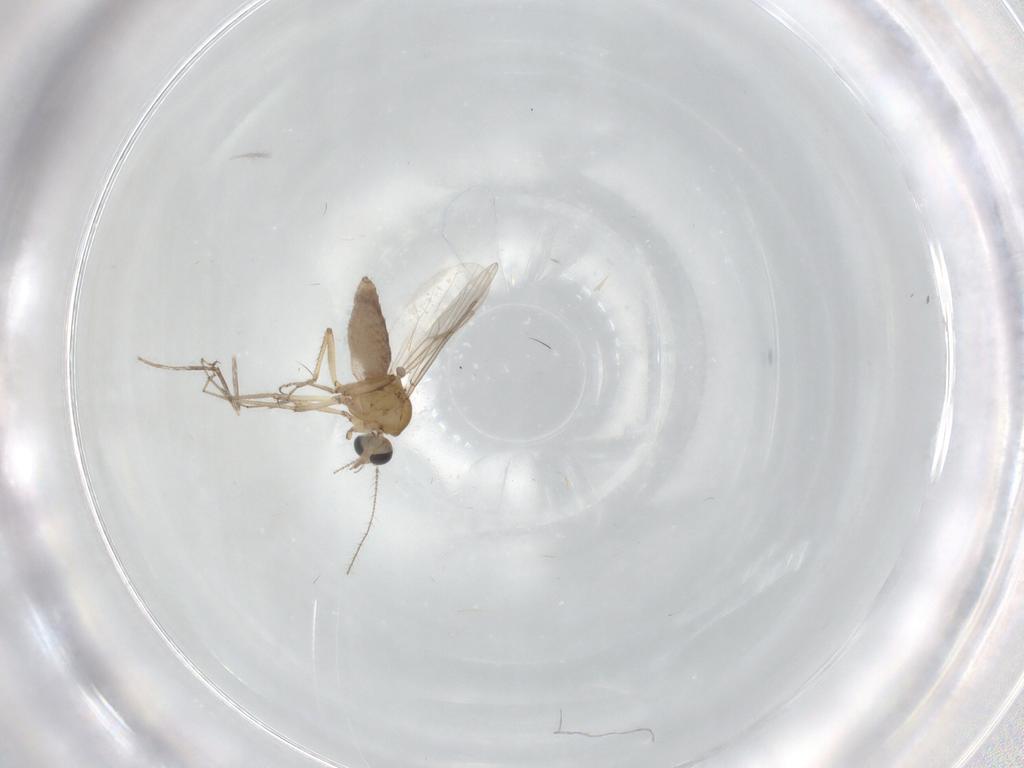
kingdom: Animalia
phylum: Arthropoda
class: Insecta
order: Diptera
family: Ceratopogonidae
